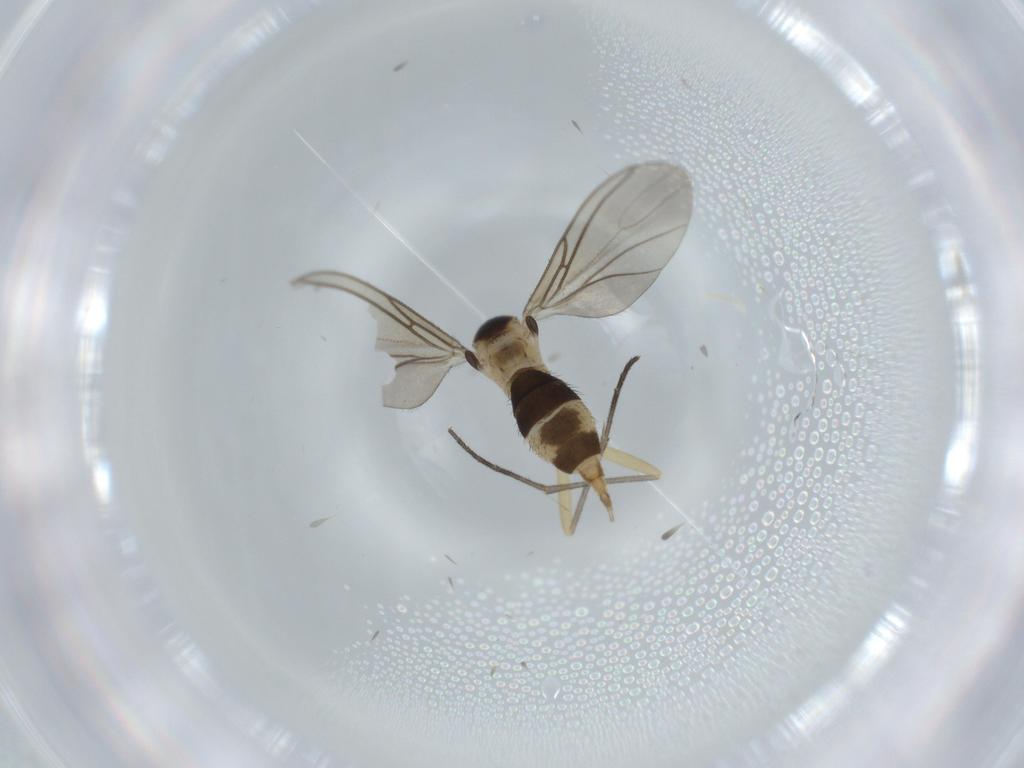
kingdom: Animalia
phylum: Arthropoda
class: Insecta
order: Diptera
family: Sciaridae
